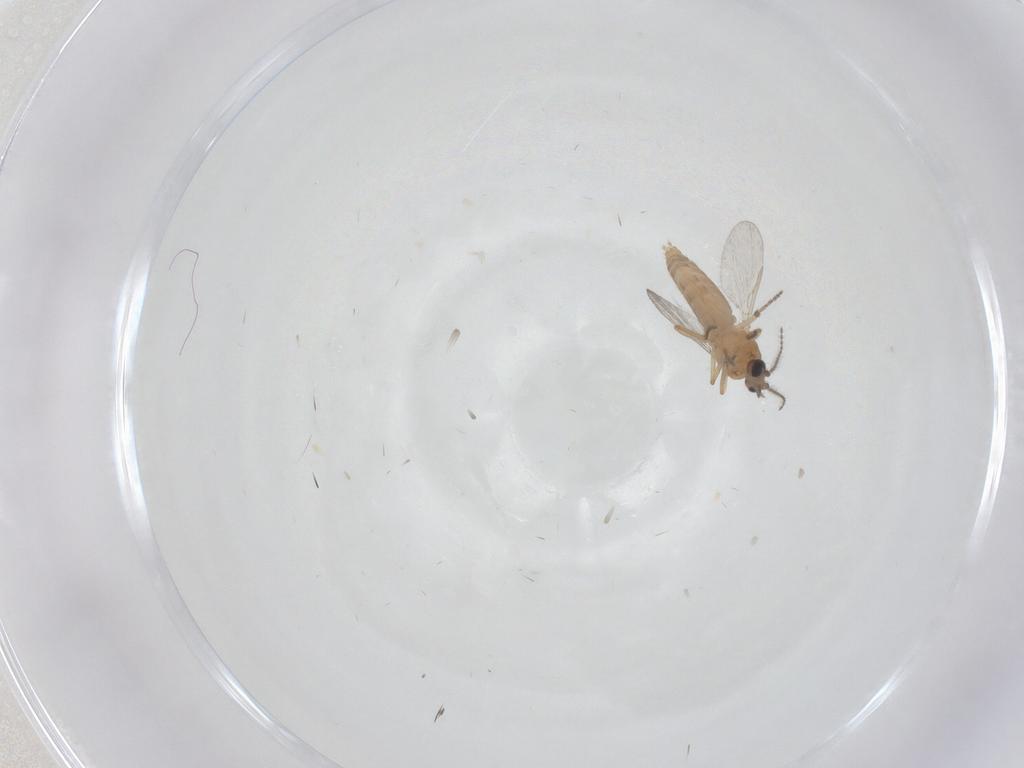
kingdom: Animalia
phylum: Arthropoda
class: Insecta
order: Diptera
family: Ceratopogonidae
